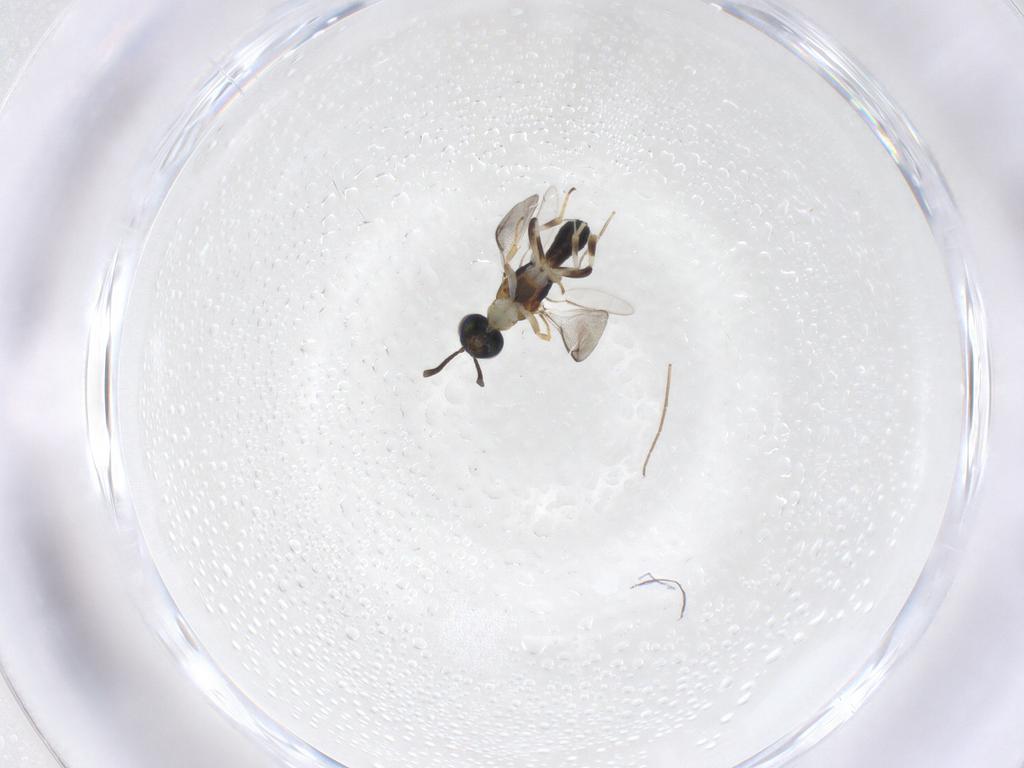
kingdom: Animalia
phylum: Arthropoda
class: Insecta
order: Hymenoptera
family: Eupelmidae
